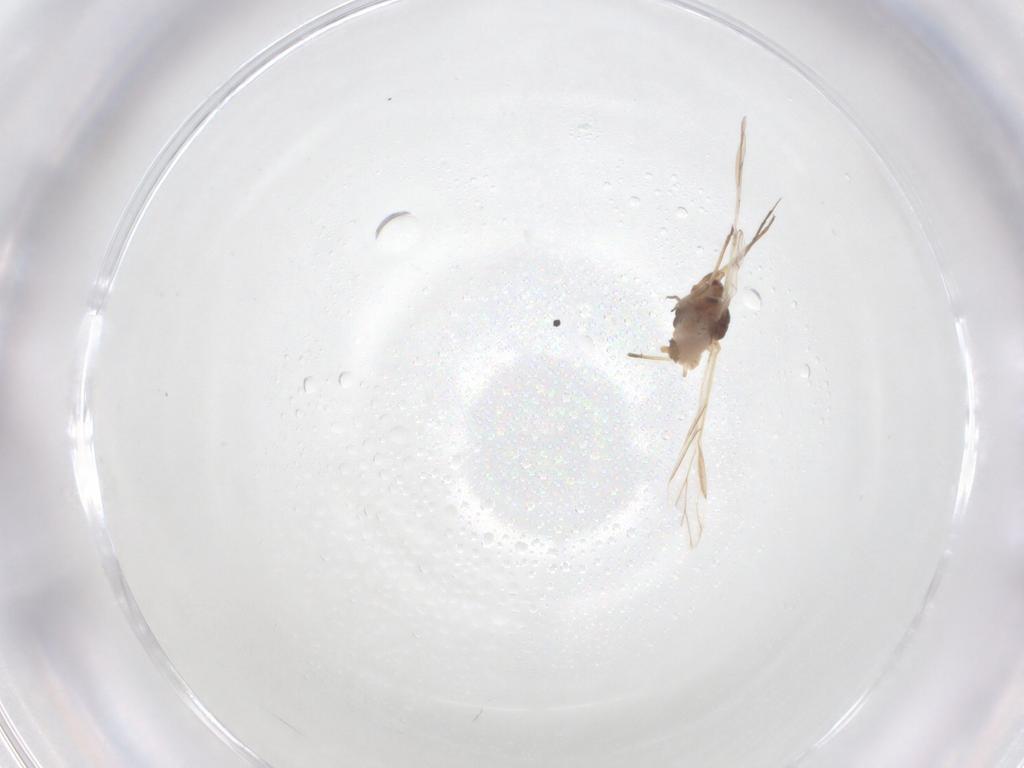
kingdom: Animalia
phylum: Arthropoda
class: Insecta
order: Hemiptera
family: Aphididae
